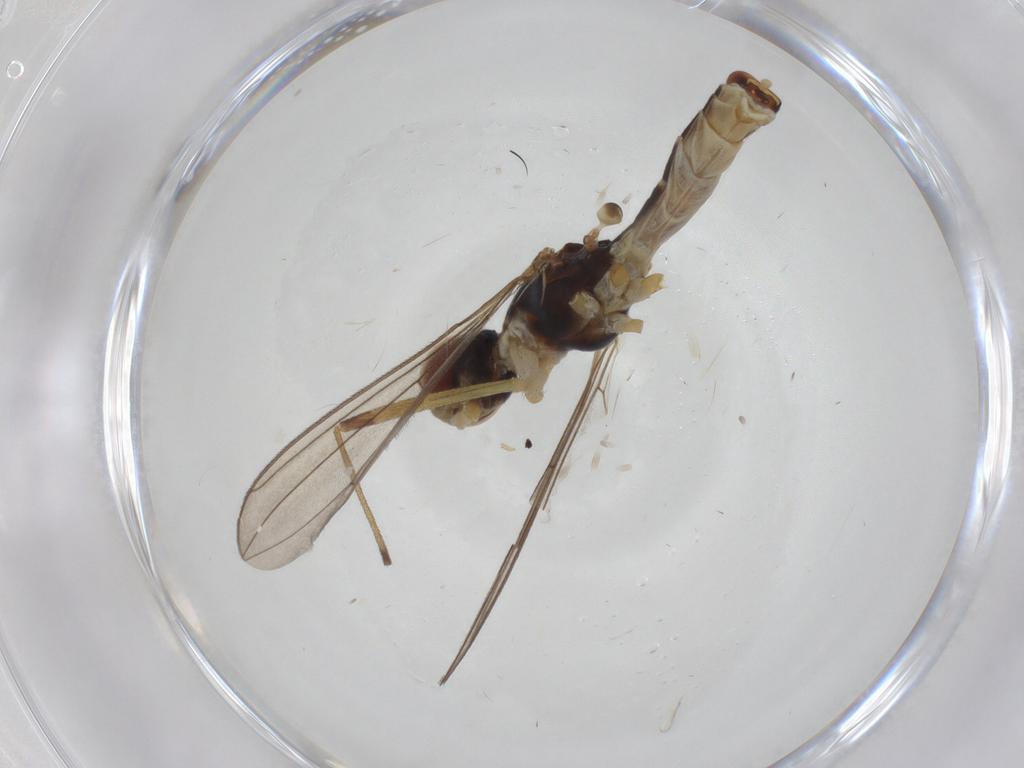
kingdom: Animalia
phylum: Arthropoda
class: Insecta
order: Diptera
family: Micropezidae
